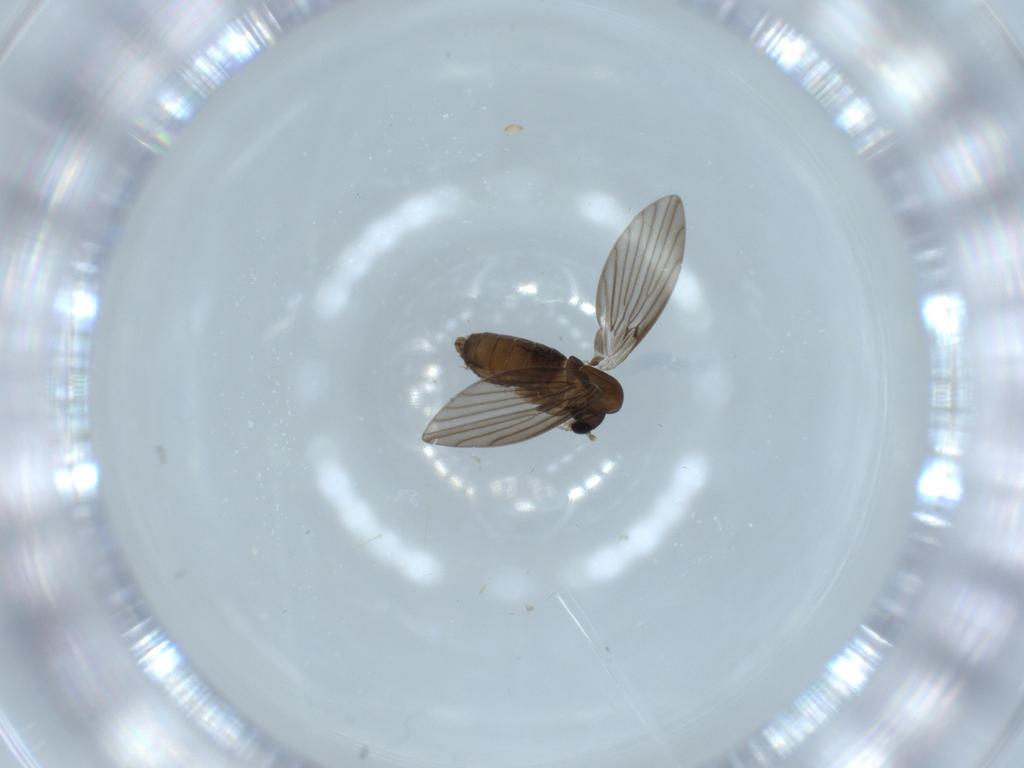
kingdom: Animalia
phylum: Arthropoda
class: Insecta
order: Diptera
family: Psychodidae
